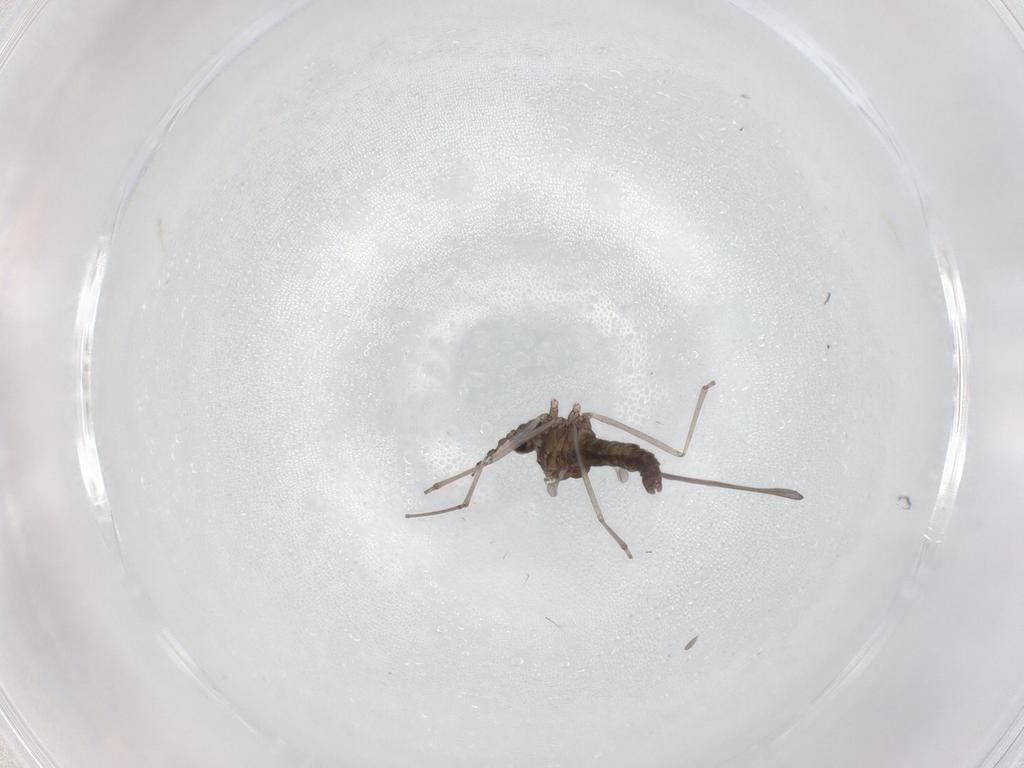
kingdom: Animalia
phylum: Arthropoda
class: Insecta
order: Diptera
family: Cecidomyiidae
